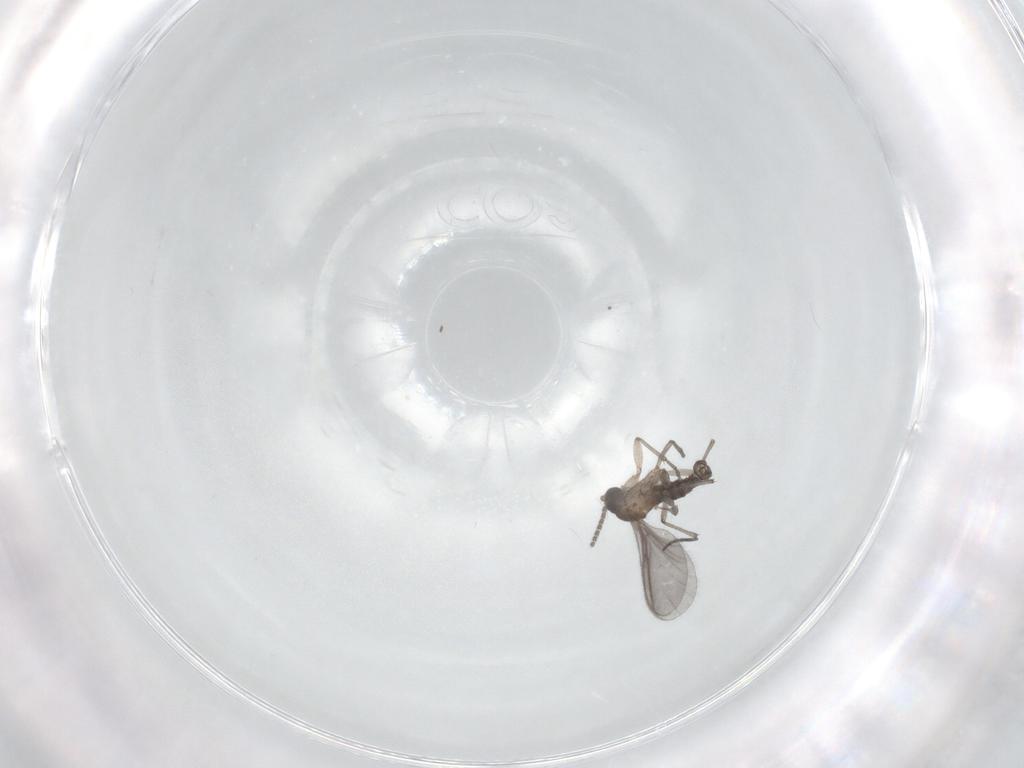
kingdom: Animalia
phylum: Arthropoda
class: Insecta
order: Diptera
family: Sciaridae
